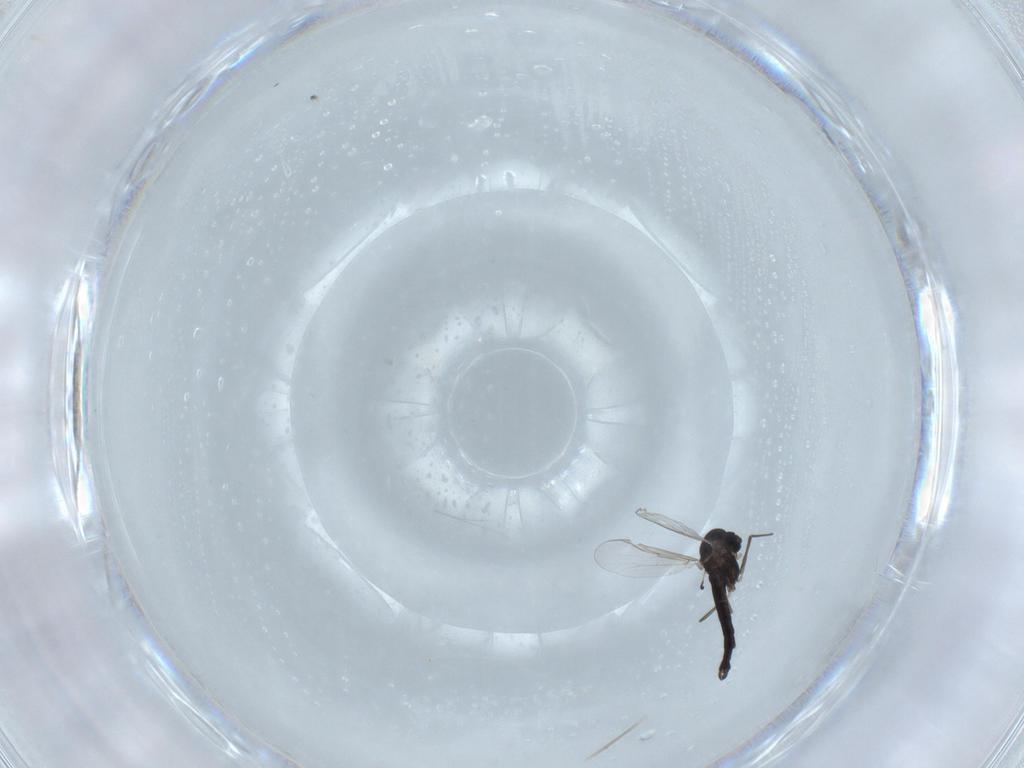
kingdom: Animalia
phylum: Arthropoda
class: Insecta
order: Diptera
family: Chironomidae
